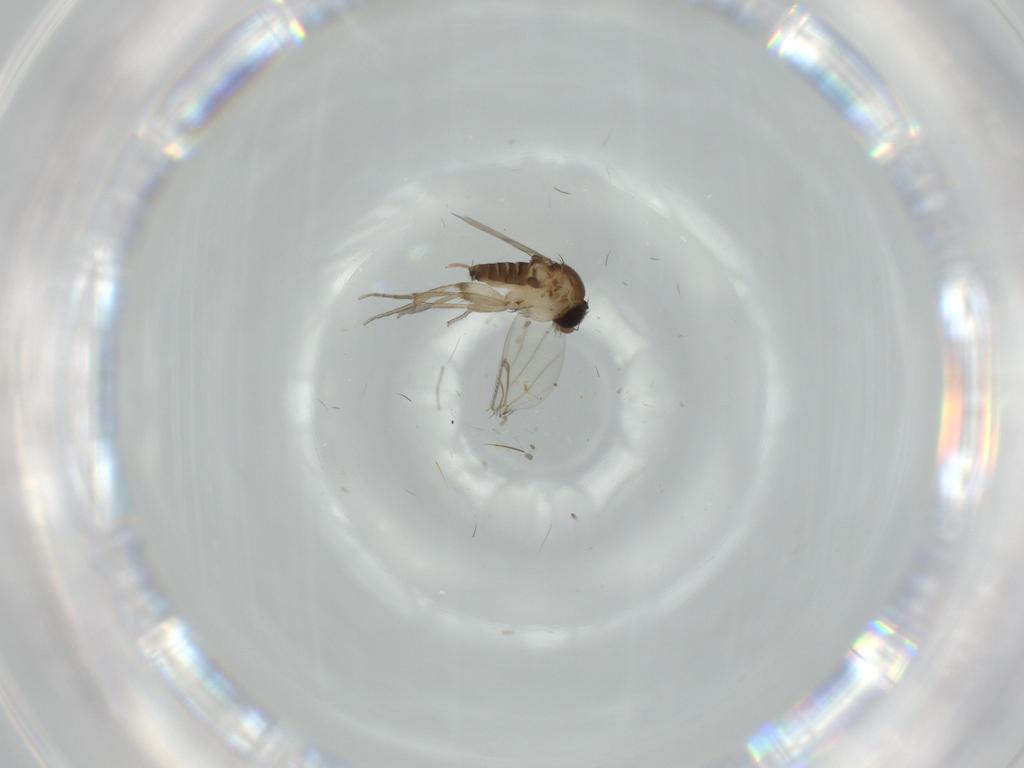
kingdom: Animalia
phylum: Arthropoda
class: Insecta
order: Diptera
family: Phoridae
